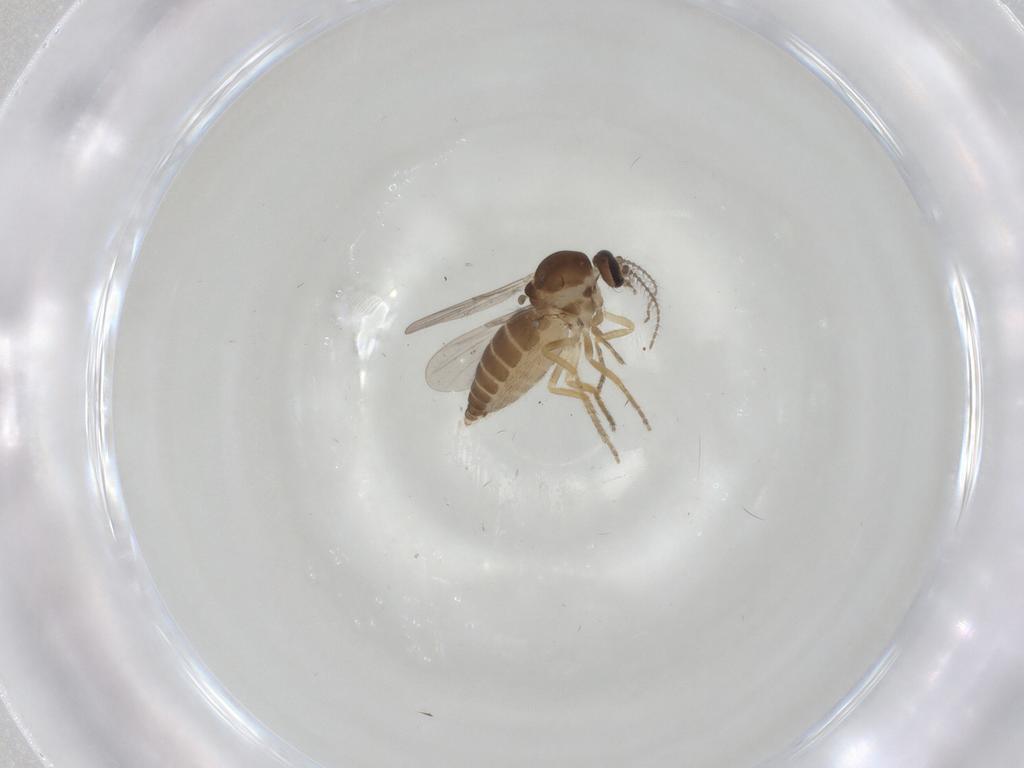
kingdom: Animalia
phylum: Arthropoda
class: Insecta
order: Diptera
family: Ceratopogonidae
